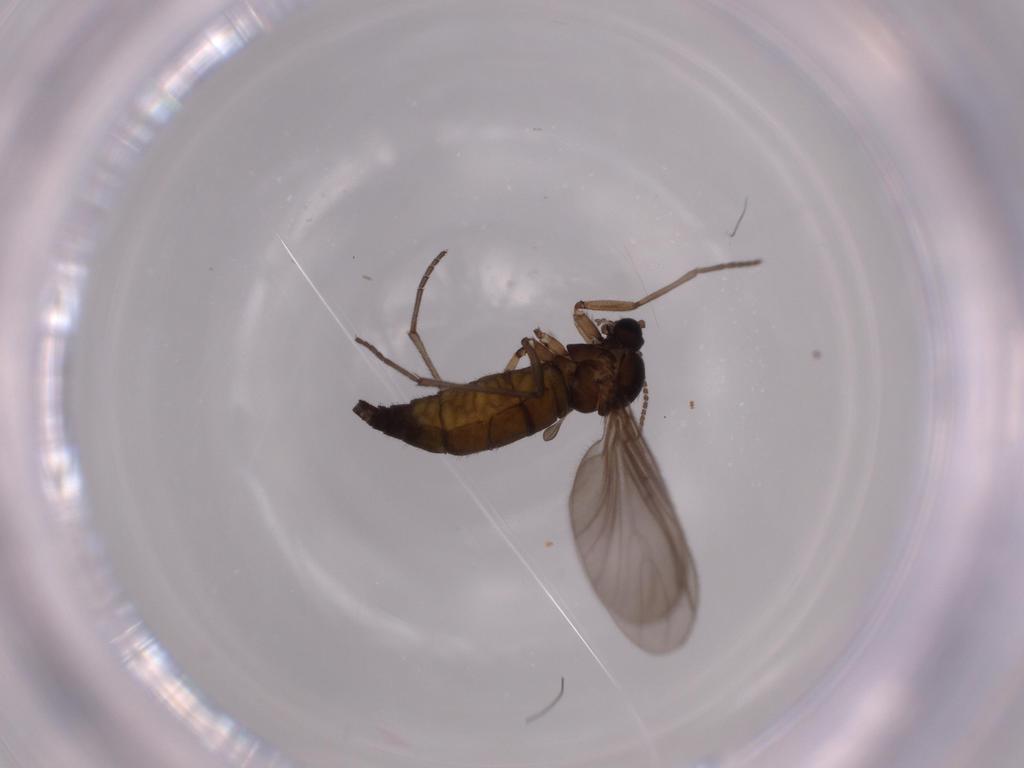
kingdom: Animalia
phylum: Arthropoda
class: Insecta
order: Diptera
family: Sciaridae
